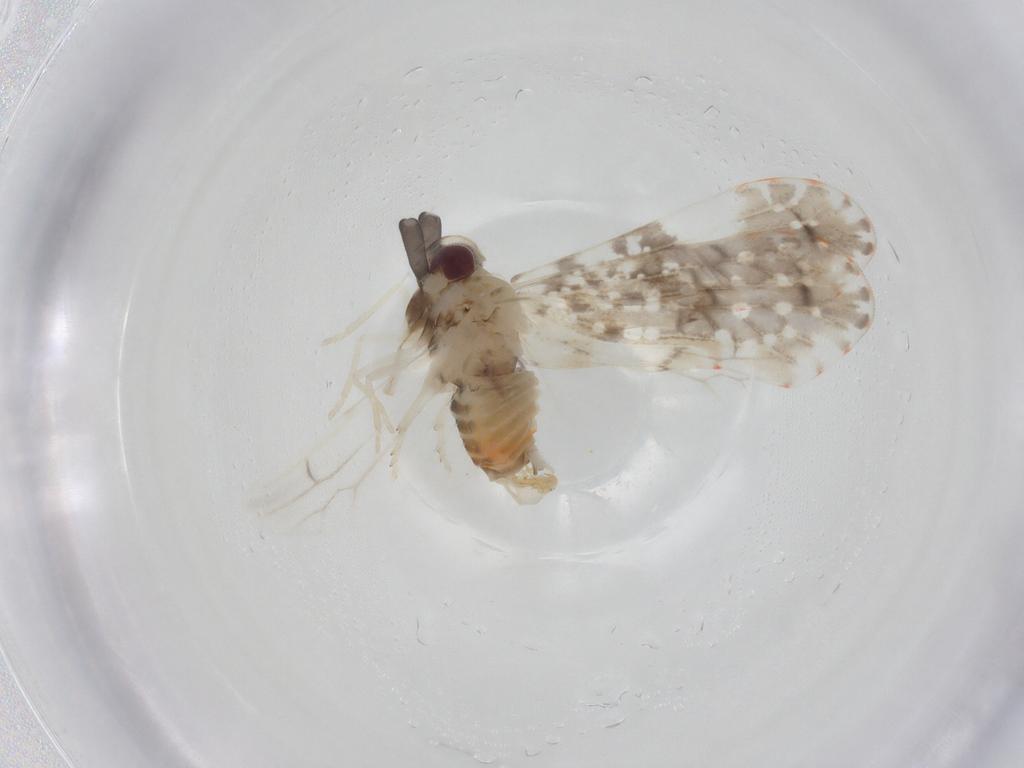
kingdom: Animalia
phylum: Arthropoda
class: Insecta
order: Hemiptera
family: Derbidae
